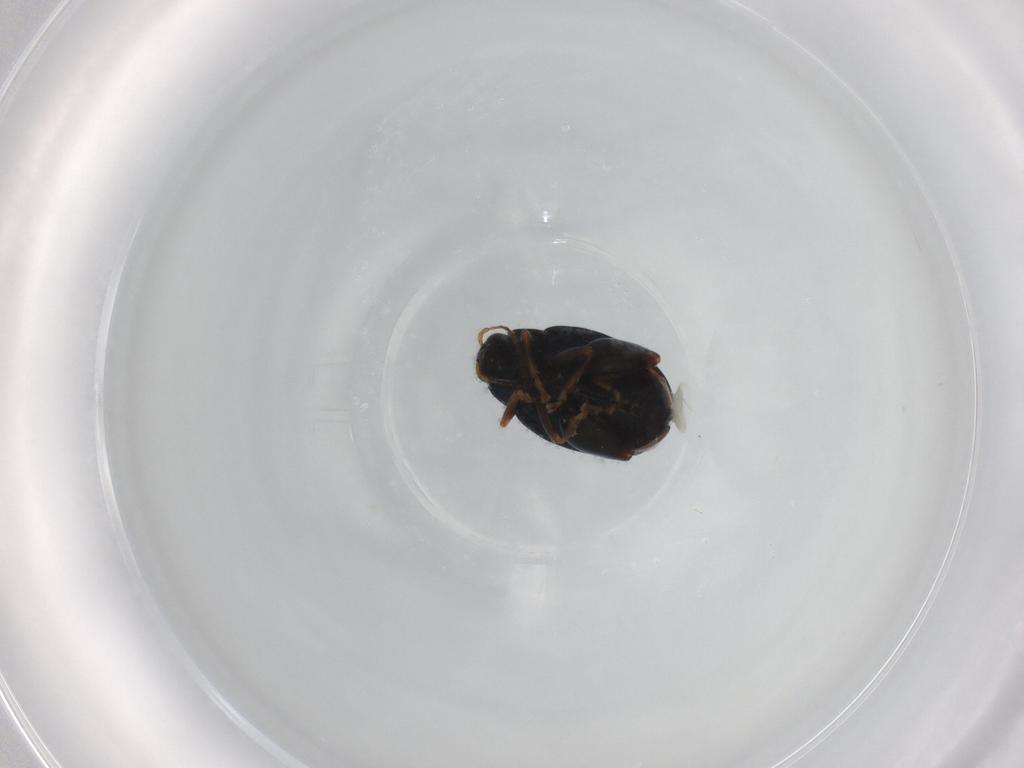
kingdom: Animalia
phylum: Arthropoda
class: Insecta
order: Coleoptera
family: Chrysomelidae
